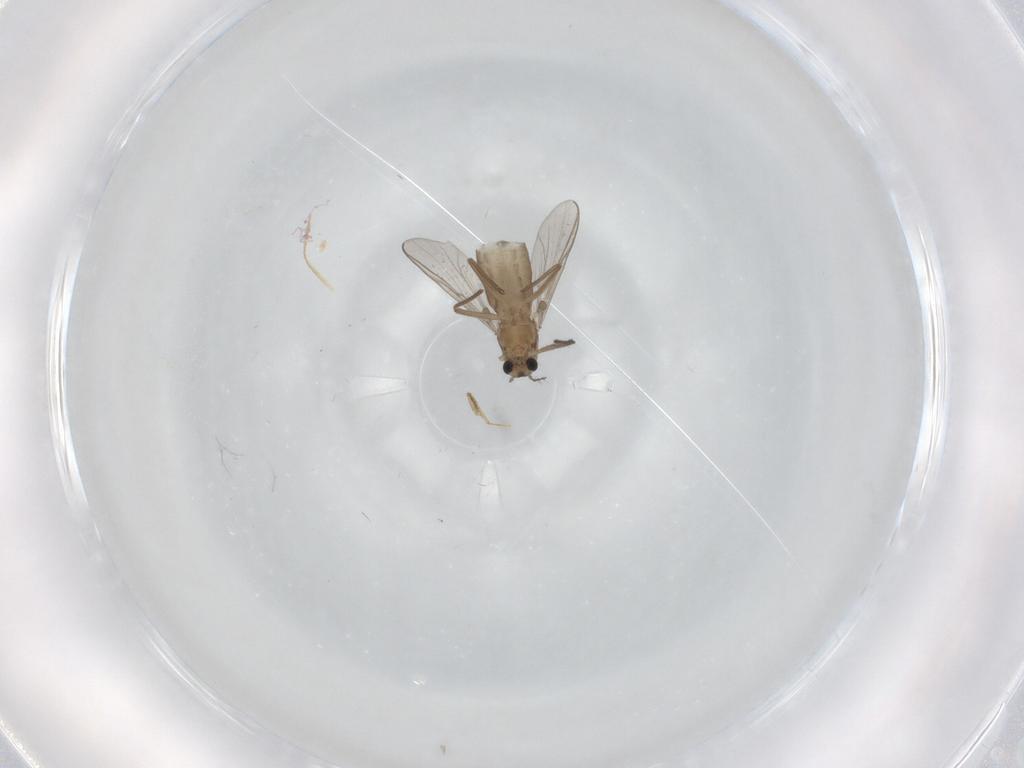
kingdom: Animalia
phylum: Arthropoda
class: Insecta
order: Diptera
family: Chironomidae
